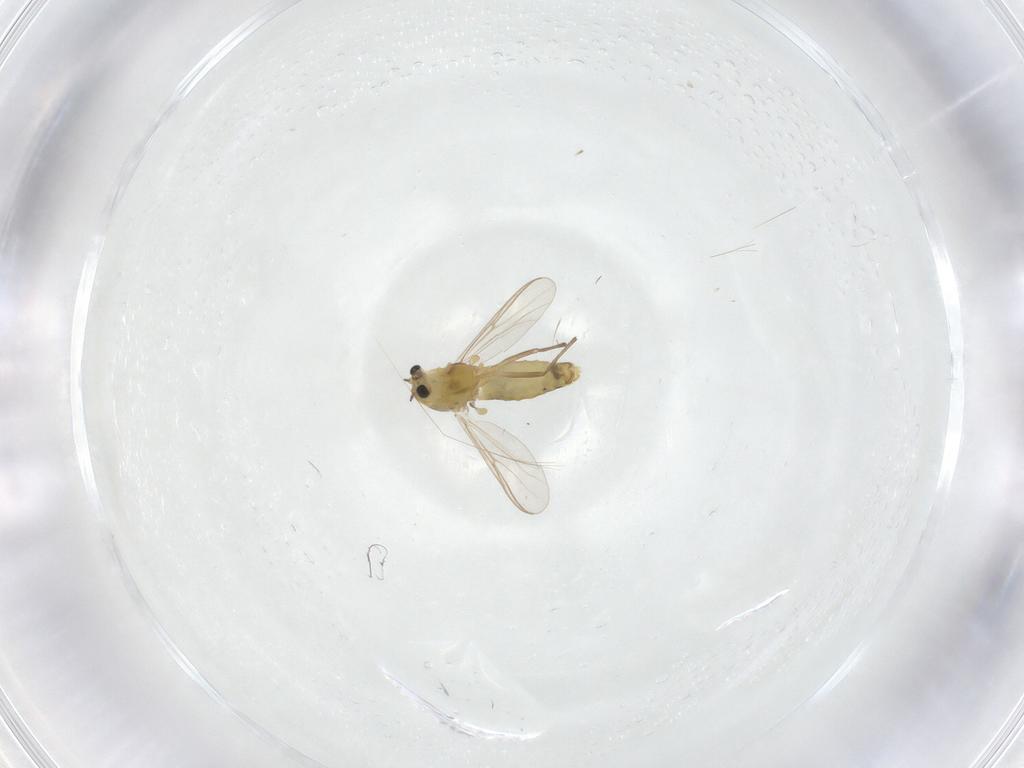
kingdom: Animalia
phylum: Arthropoda
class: Insecta
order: Diptera
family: Chironomidae
